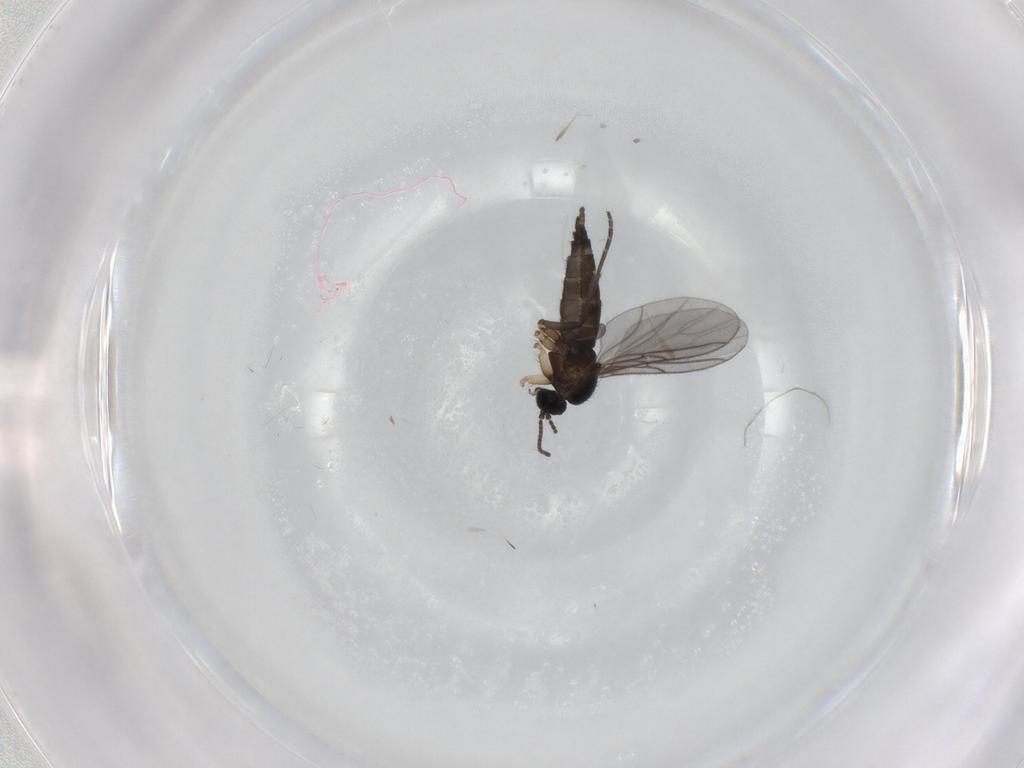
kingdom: Animalia
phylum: Arthropoda
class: Insecta
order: Diptera
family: Sciaridae
